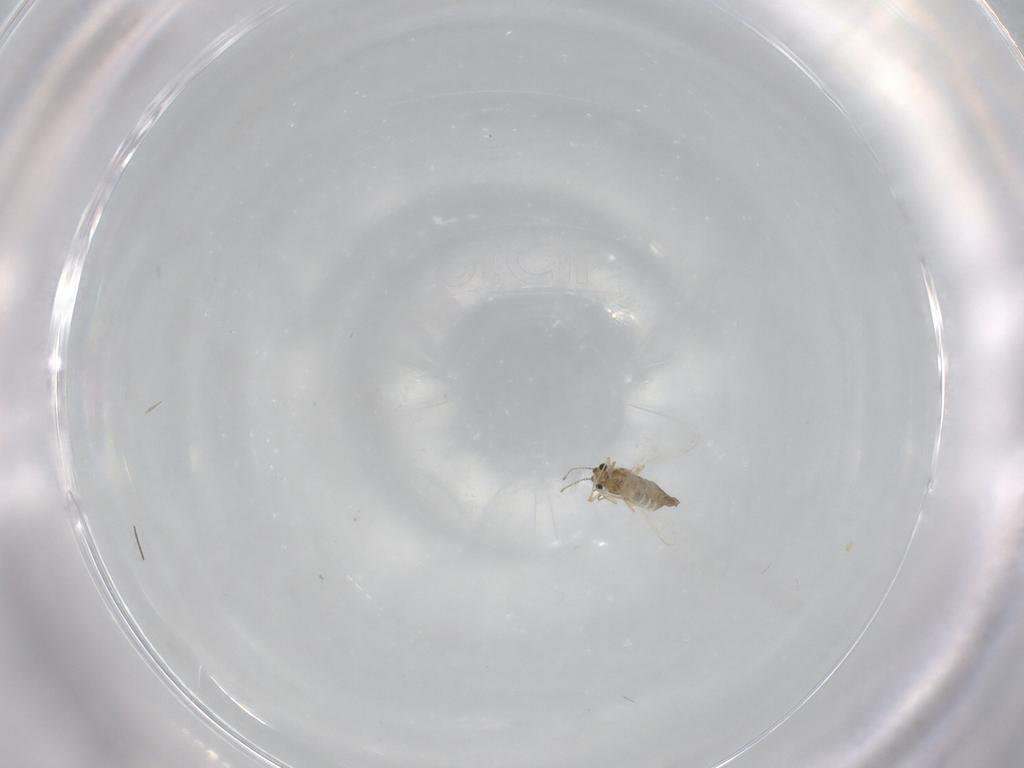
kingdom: Animalia
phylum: Arthropoda
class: Insecta
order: Diptera
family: Chironomidae
